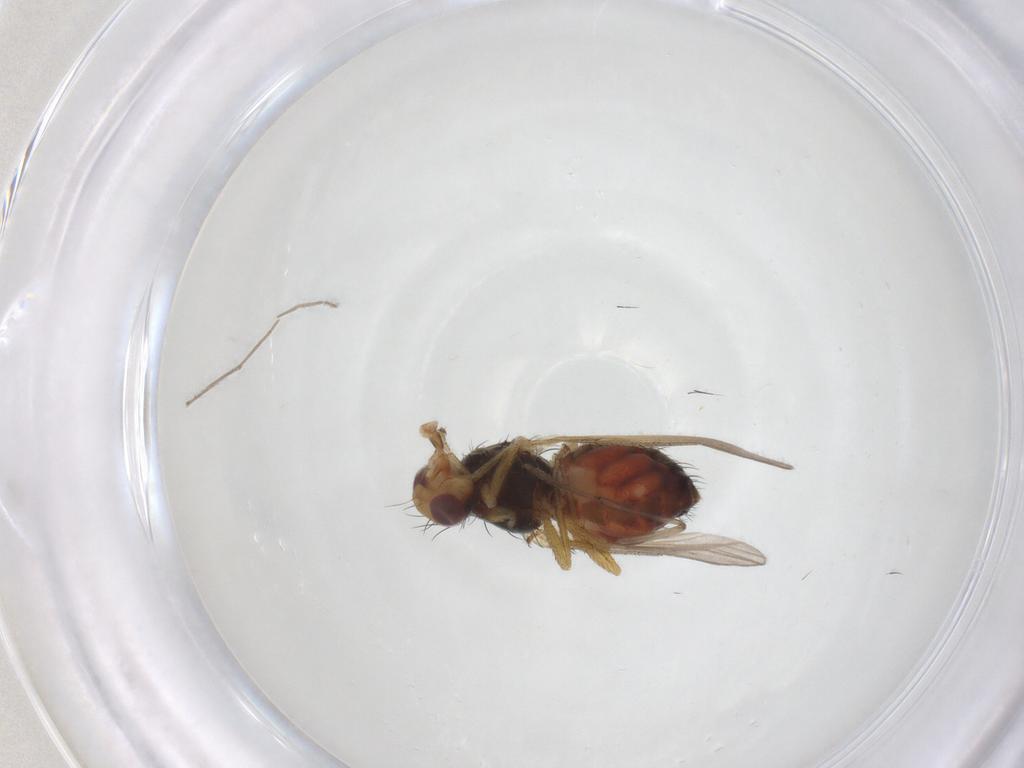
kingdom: Animalia
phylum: Arthropoda
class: Insecta
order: Diptera
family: Heleomyzidae
